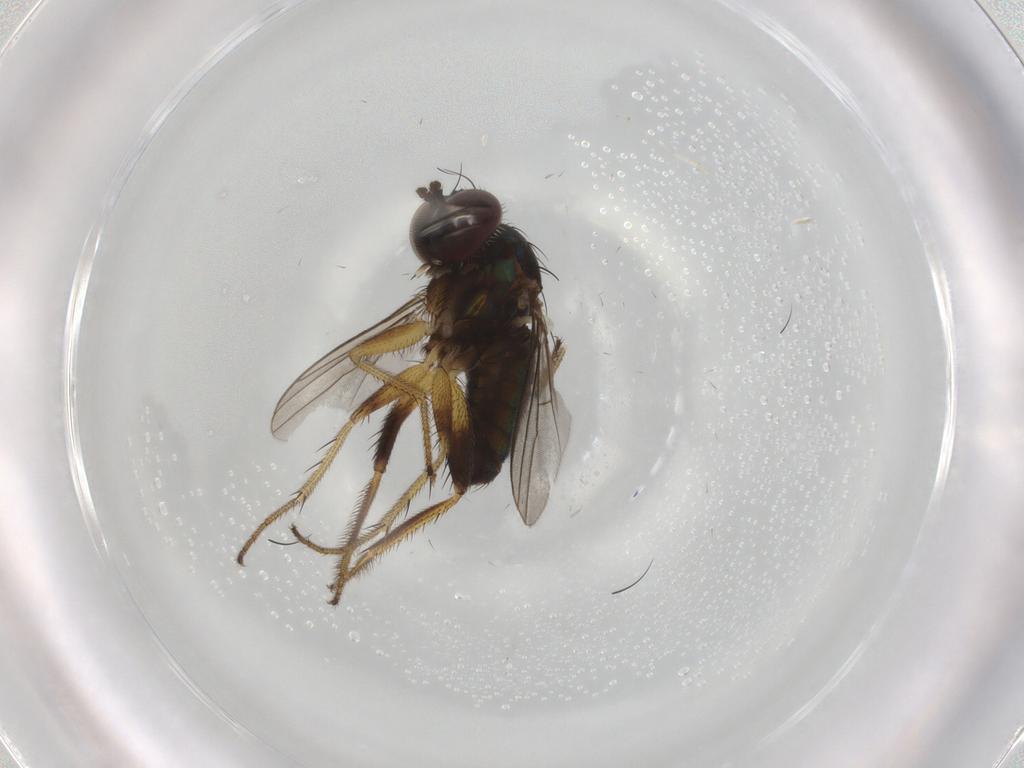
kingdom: Animalia
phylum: Arthropoda
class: Insecta
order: Diptera
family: Dolichopodidae
